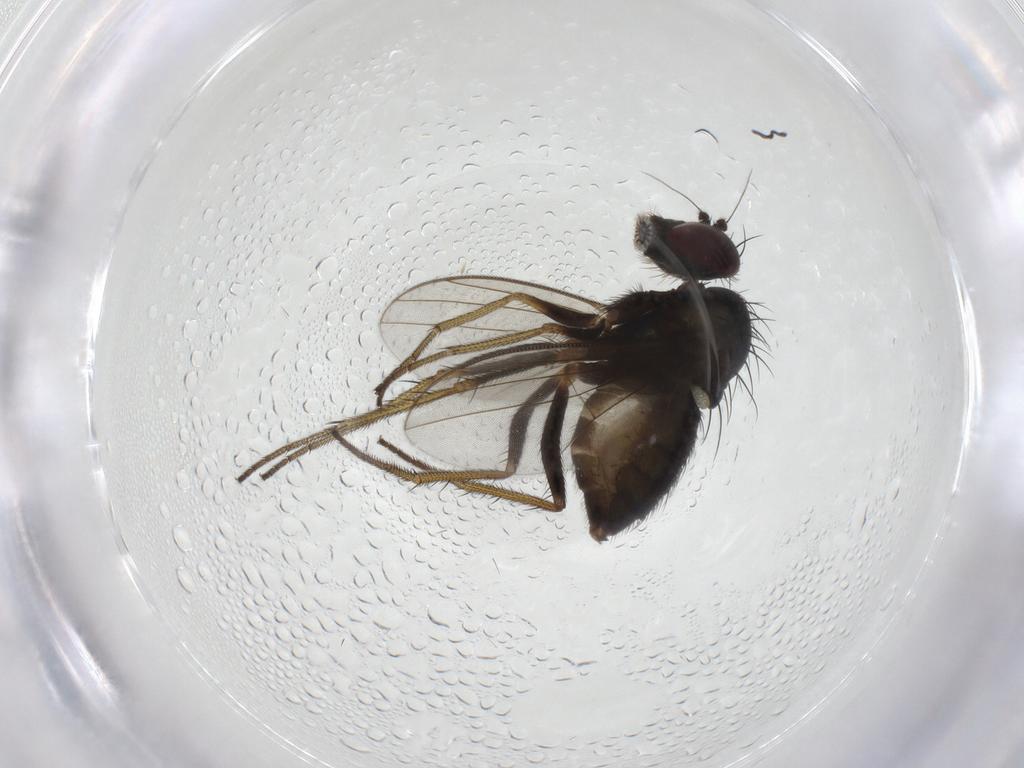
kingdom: Animalia
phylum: Arthropoda
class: Insecta
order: Diptera
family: Dolichopodidae
